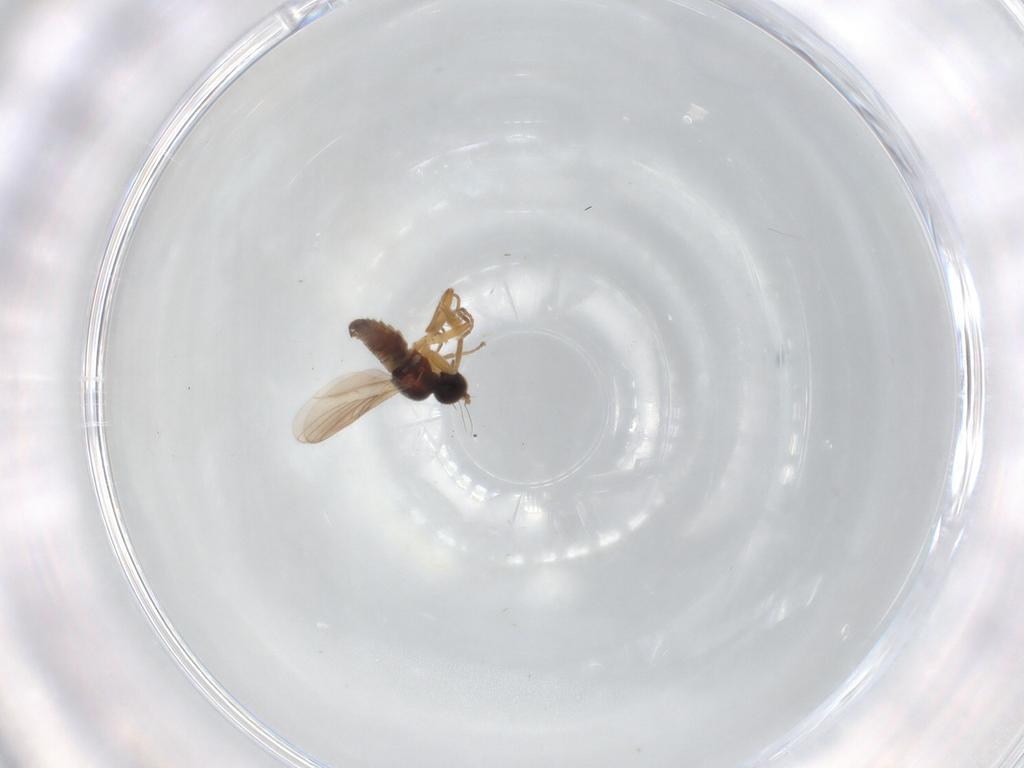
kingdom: Animalia
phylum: Arthropoda
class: Insecta
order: Diptera
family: Hybotidae
